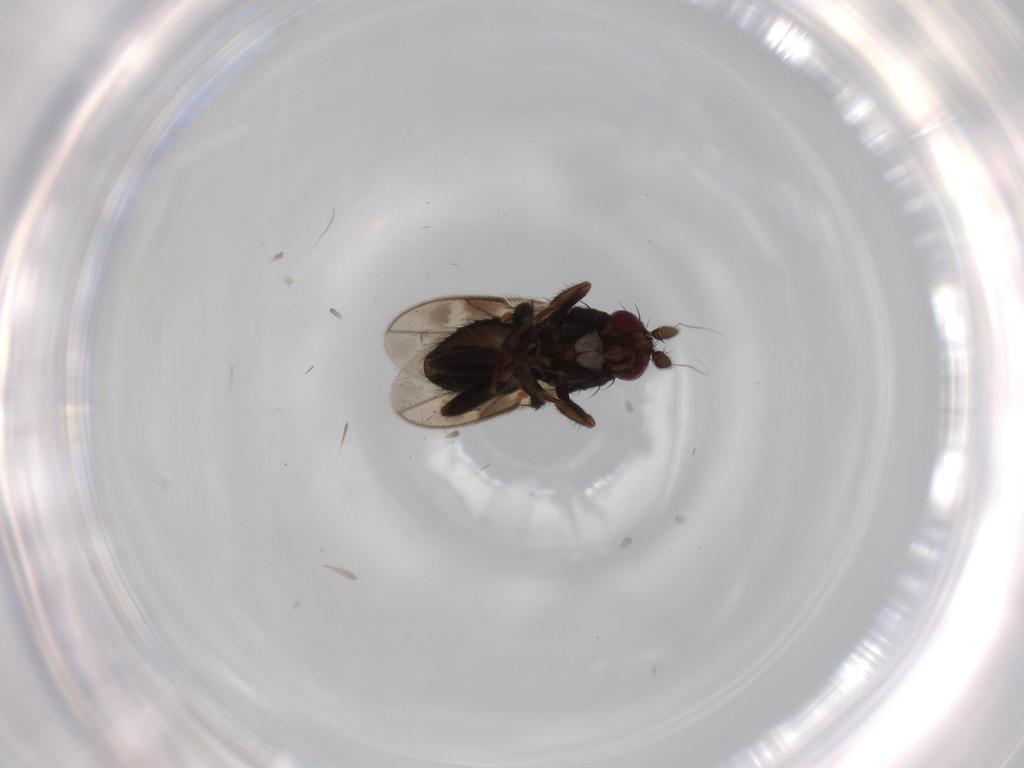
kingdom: Animalia
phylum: Arthropoda
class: Insecta
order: Diptera
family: Sphaeroceridae
